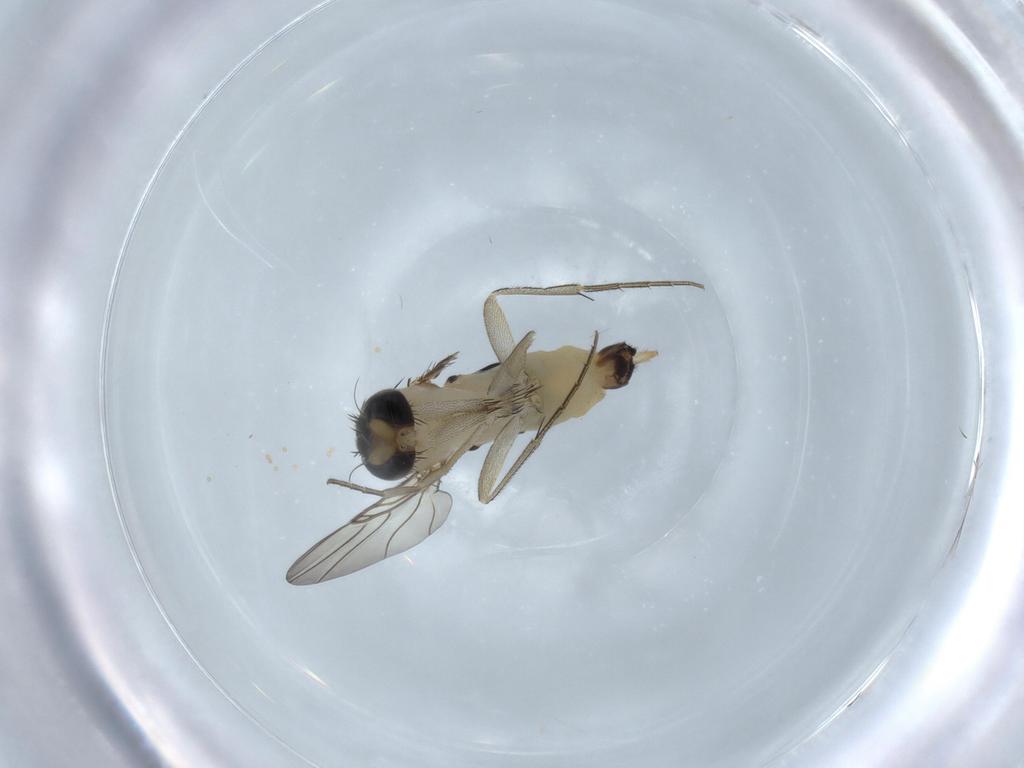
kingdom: Animalia
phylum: Arthropoda
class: Insecta
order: Diptera
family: Phoridae
